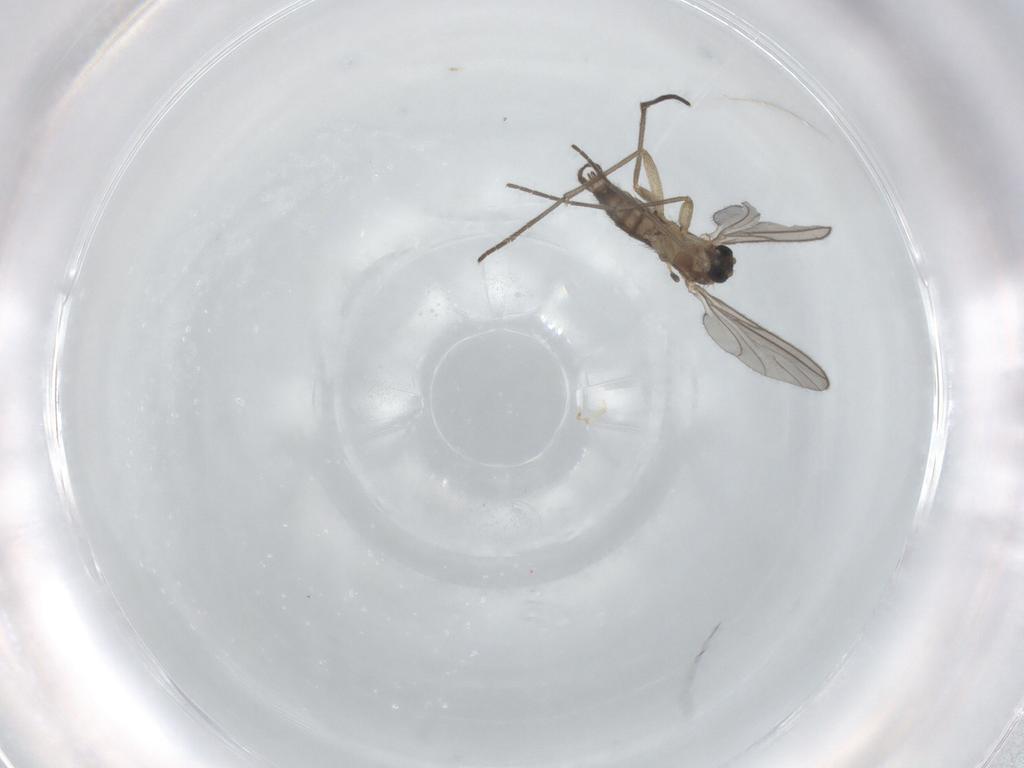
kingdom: Animalia
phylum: Arthropoda
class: Insecta
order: Diptera
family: Sciaridae
